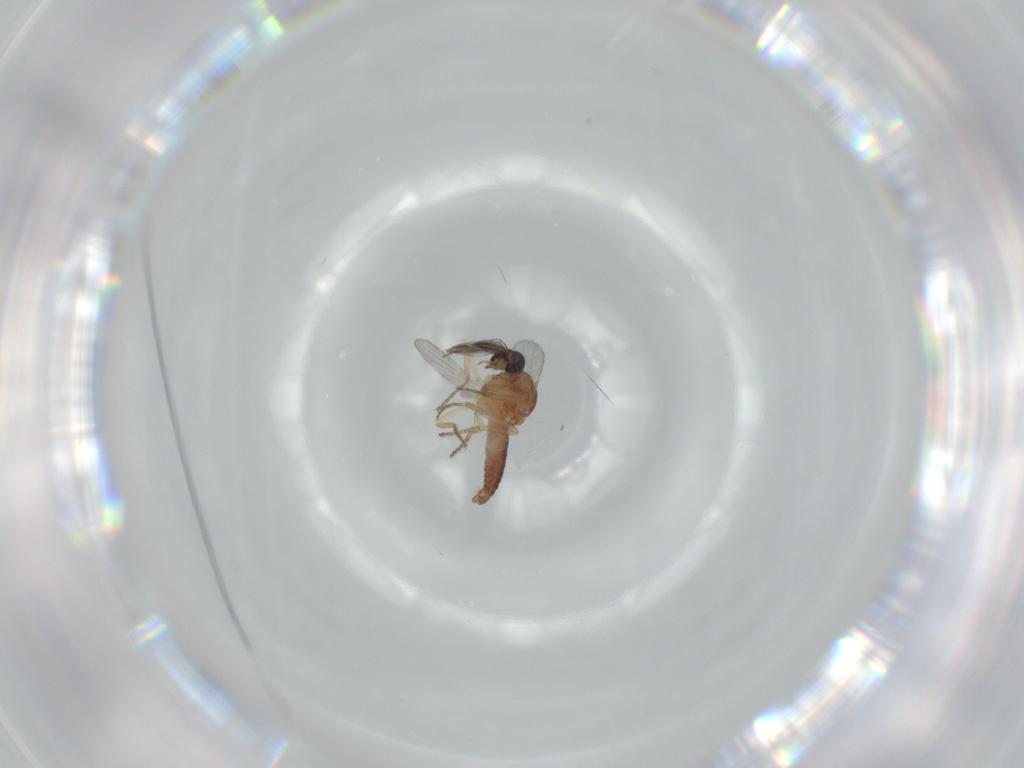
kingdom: Animalia
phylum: Arthropoda
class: Insecta
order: Diptera
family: Ceratopogonidae
